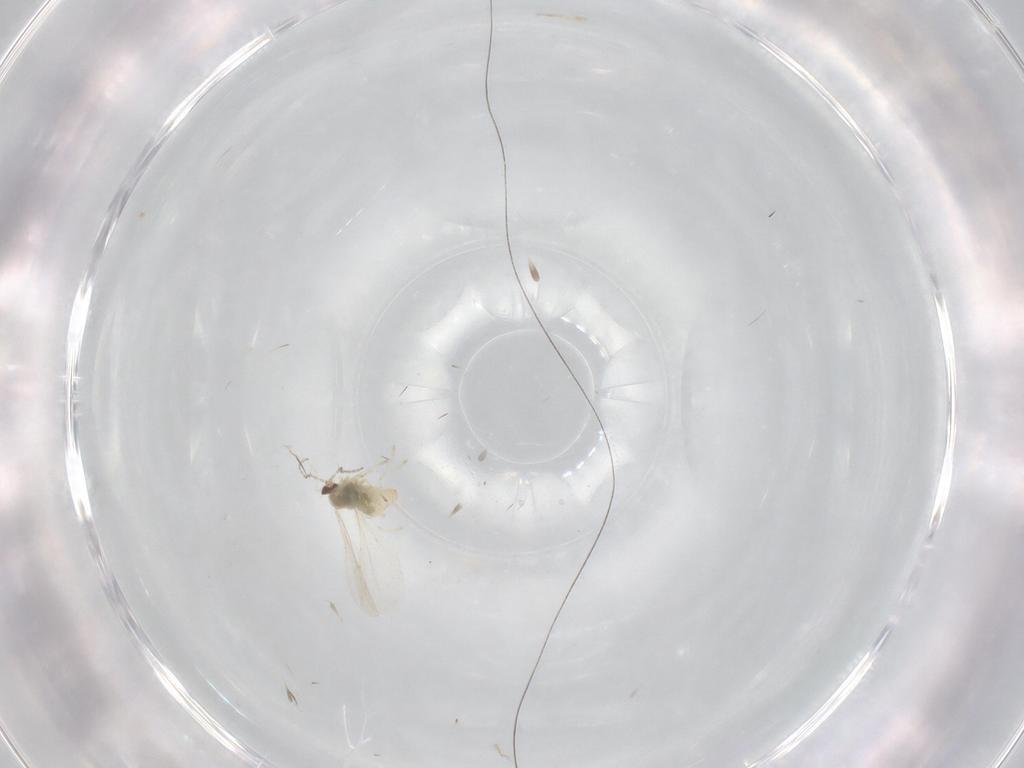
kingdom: Animalia
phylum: Arthropoda
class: Insecta
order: Diptera
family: Cecidomyiidae
